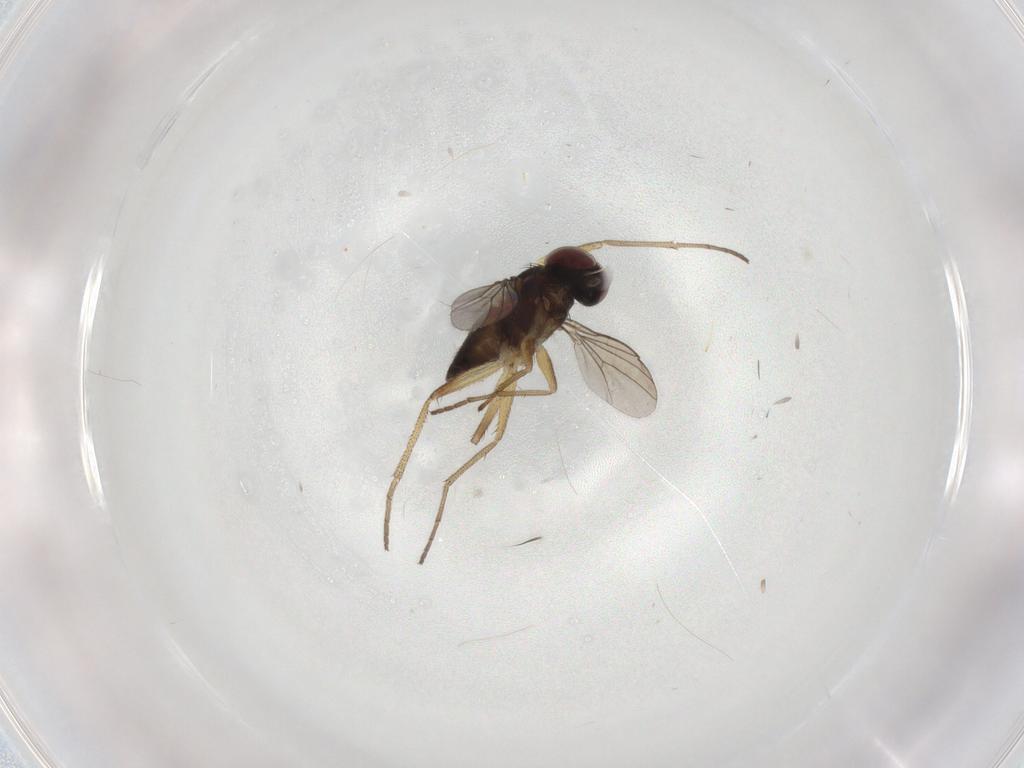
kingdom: Animalia
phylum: Arthropoda
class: Insecta
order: Diptera
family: Dolichopodidae
